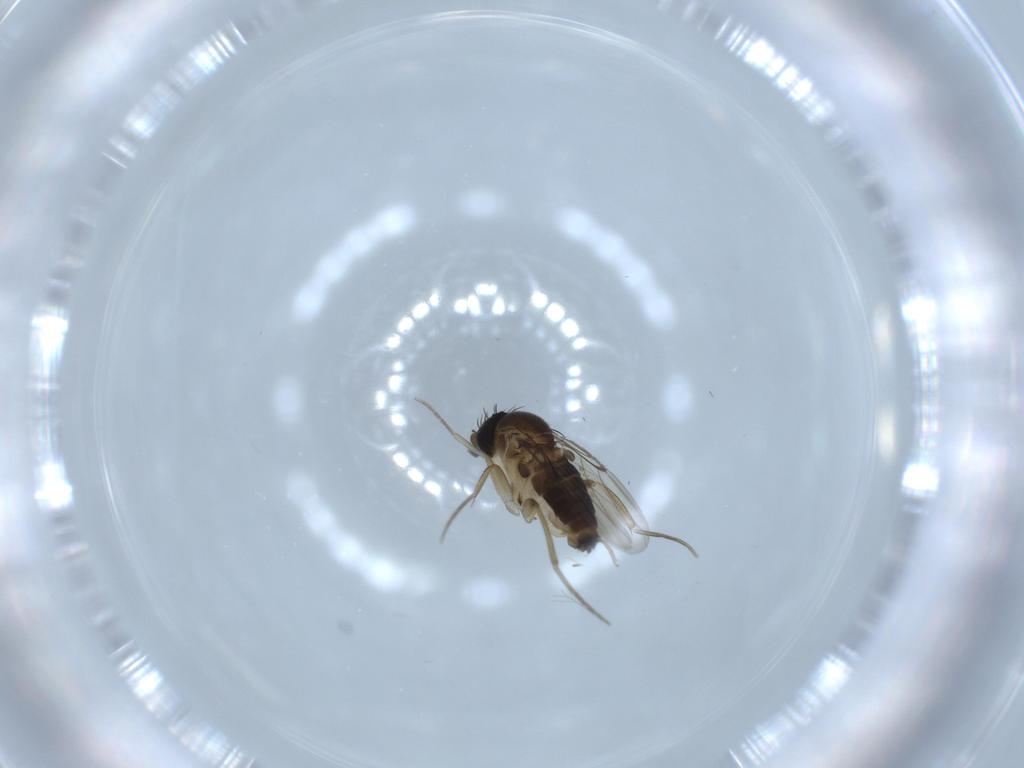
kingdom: Animalia
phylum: Arthropoda
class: Insecta
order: Diptera
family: Phoridae
